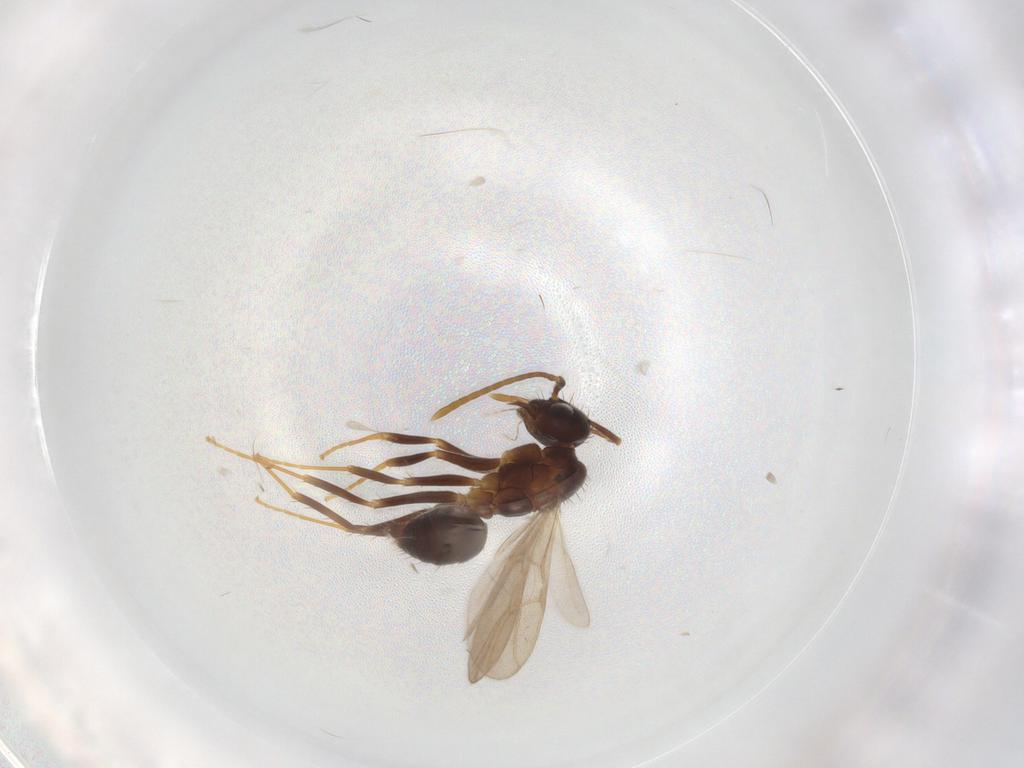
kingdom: Animalia
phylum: Arthropoda
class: Insecta
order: Hymenoptera
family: Formicidae
